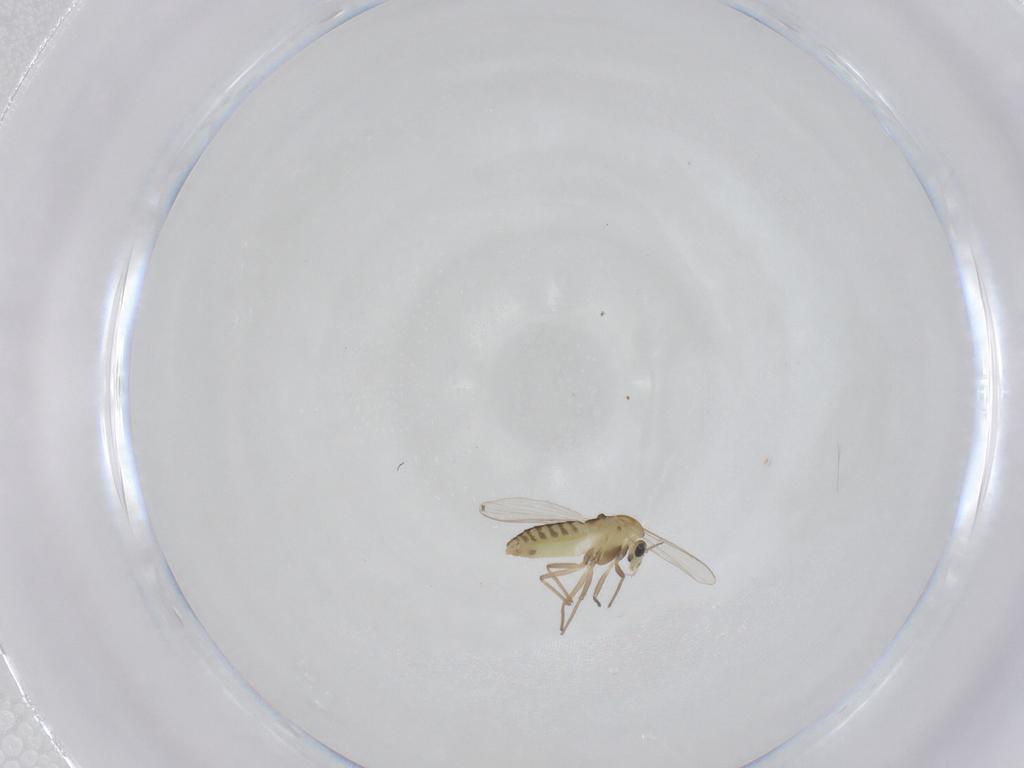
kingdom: Animalia
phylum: Arthropoda
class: Insecta
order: Diptera
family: Chironomidae
